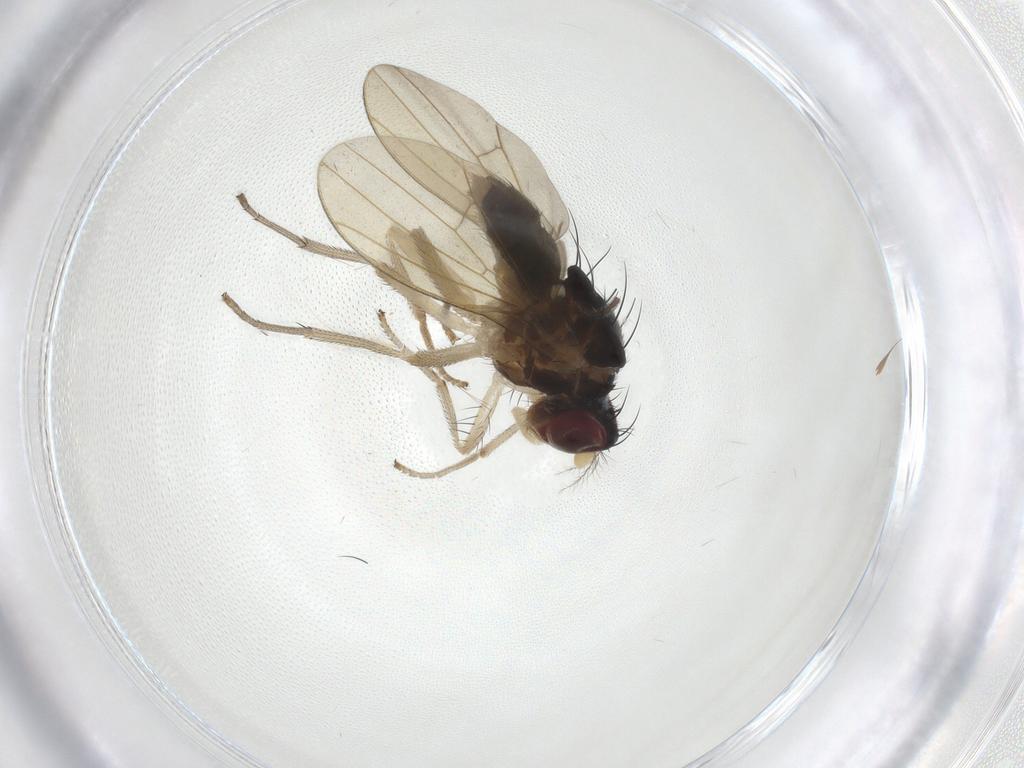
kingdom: Animalia
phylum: Arthropoda
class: Insecta
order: Diptera
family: Lauxaniidae
